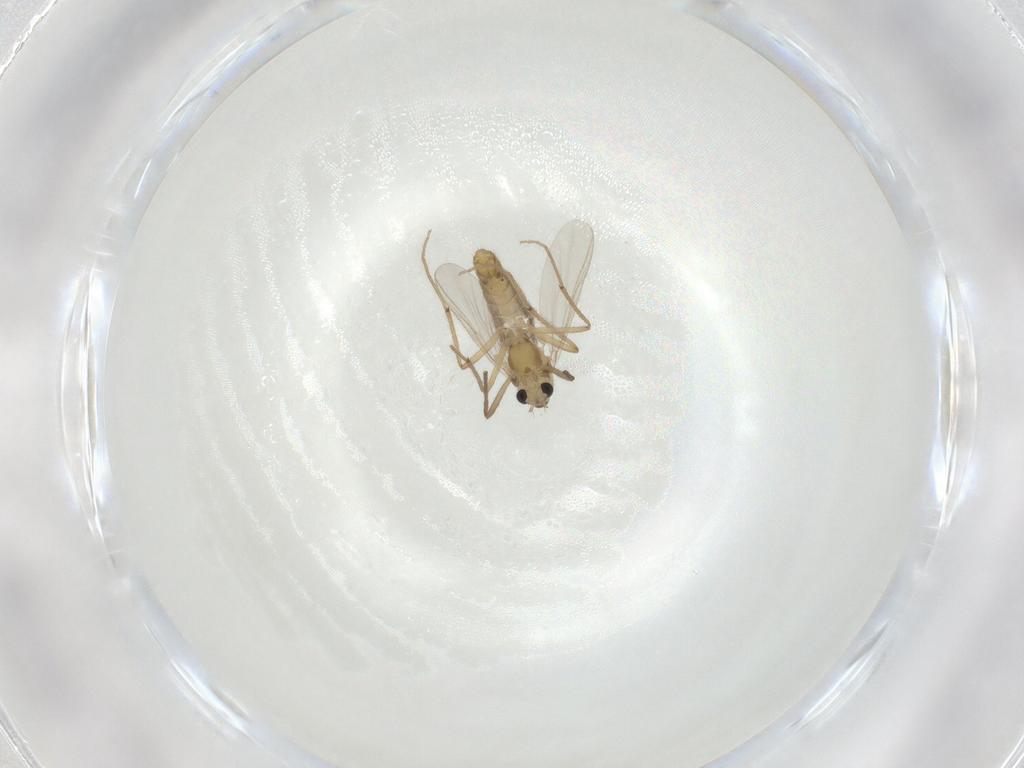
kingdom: Animalia
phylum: Arthropoda
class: Insecta
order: Diptera
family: Chironomidae
